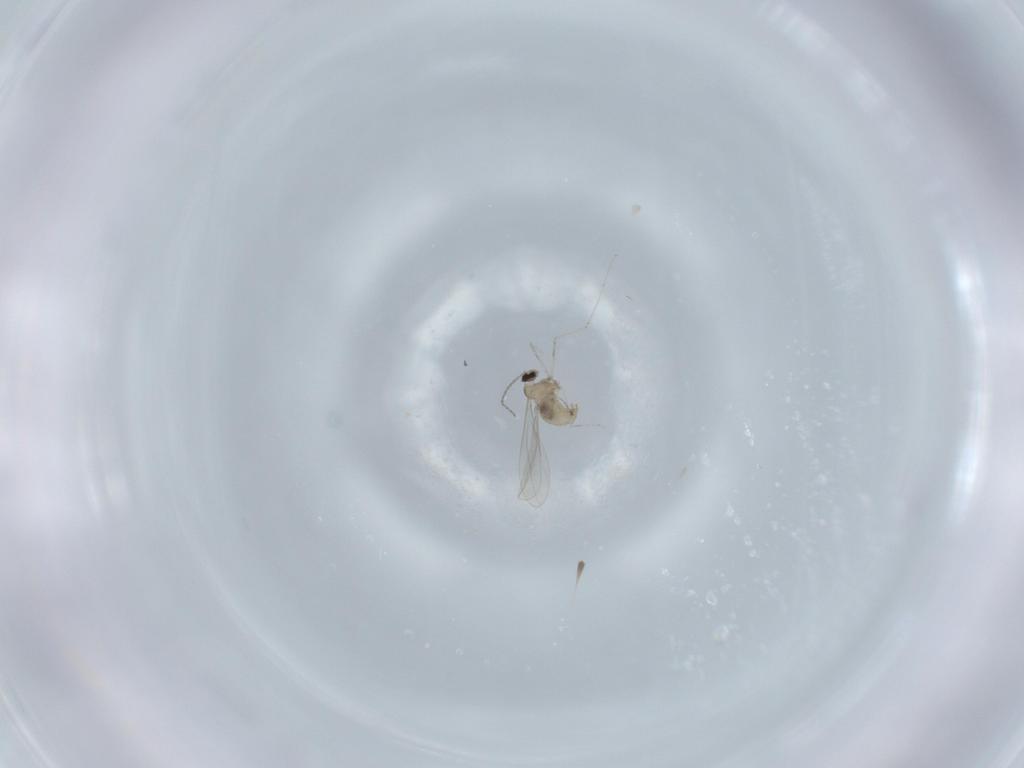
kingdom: Animalia
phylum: Arthropoda
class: Insecta
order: Diptera
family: Cecidomyiidae
